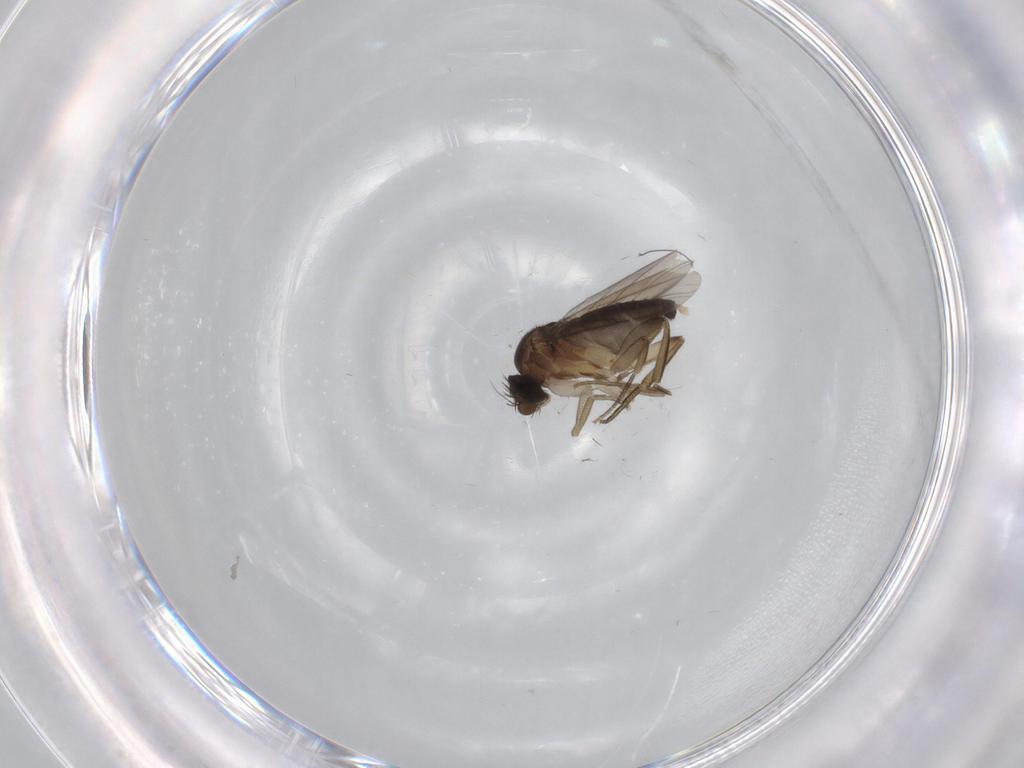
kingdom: Animalia
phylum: Arthropoda
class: Insecta
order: Diptera
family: Phoridae
